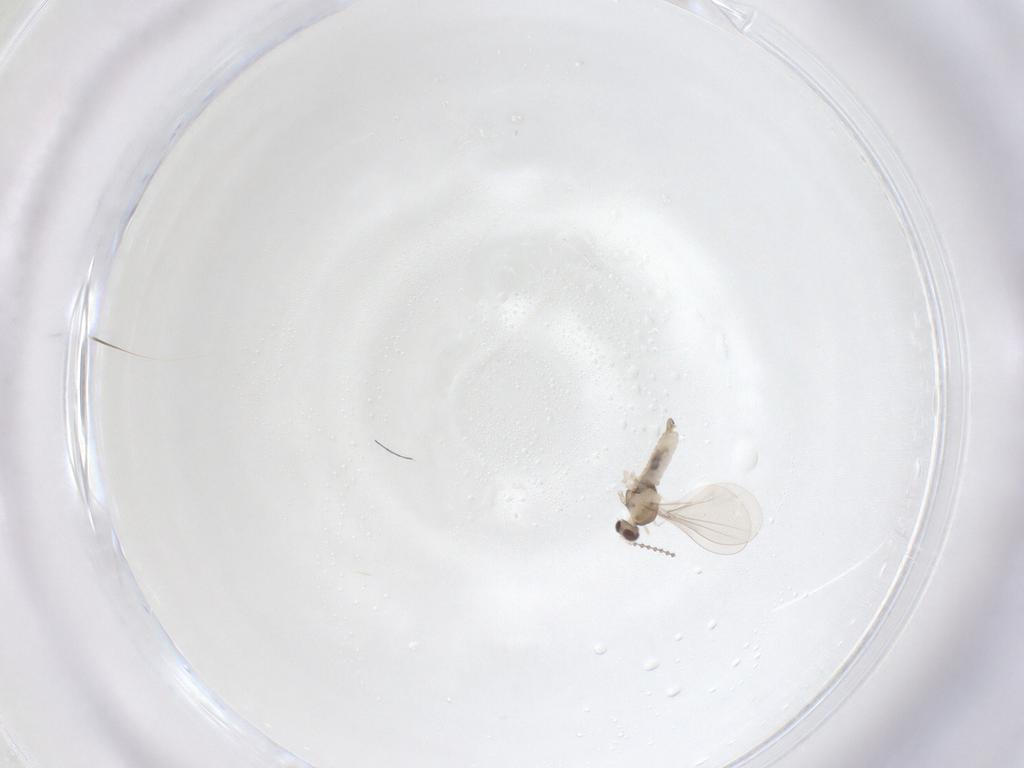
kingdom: Animalia
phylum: Arthropoda
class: Insecta
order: Diptera
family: Cecidomyiidae
